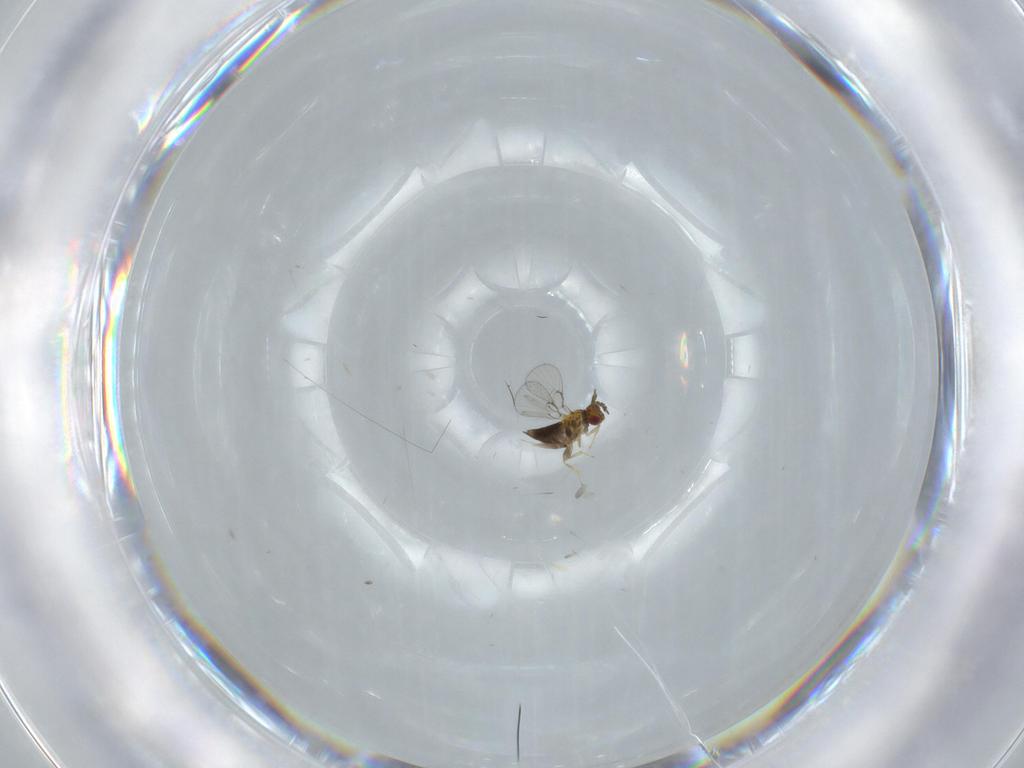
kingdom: Animalia
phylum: Arthropoda
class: Insecta
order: Hymenoptera
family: Trichogrammatidae
